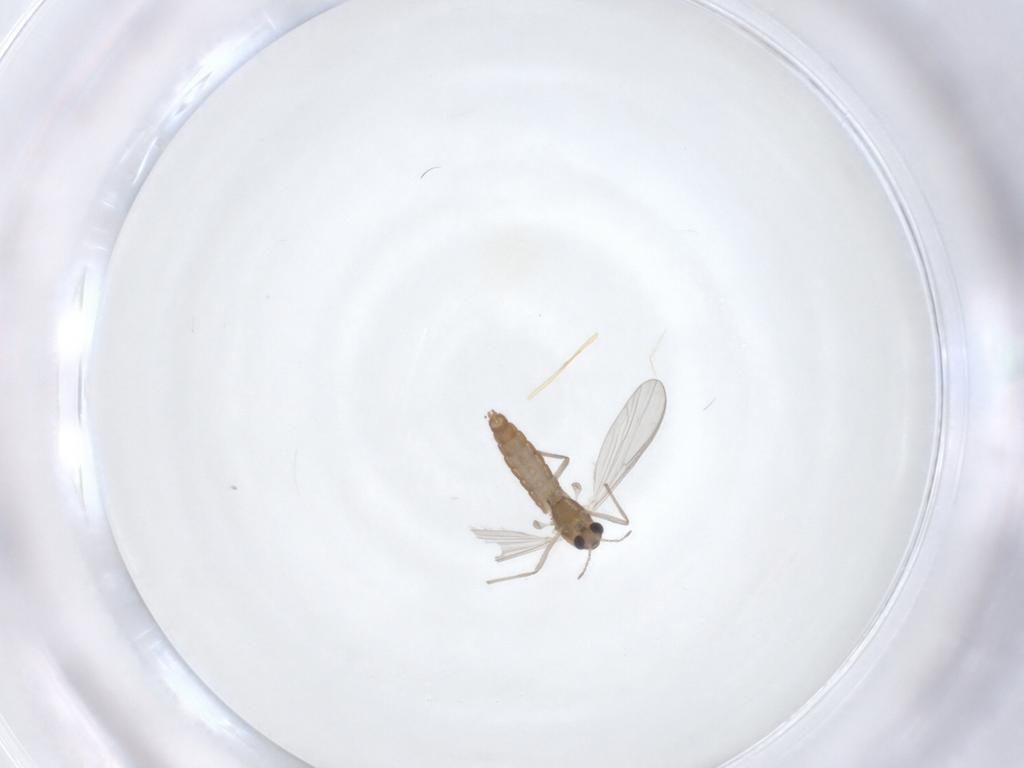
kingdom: Animalia
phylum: Arthropoda
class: Insecta
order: Diptera
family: Chironomidae
